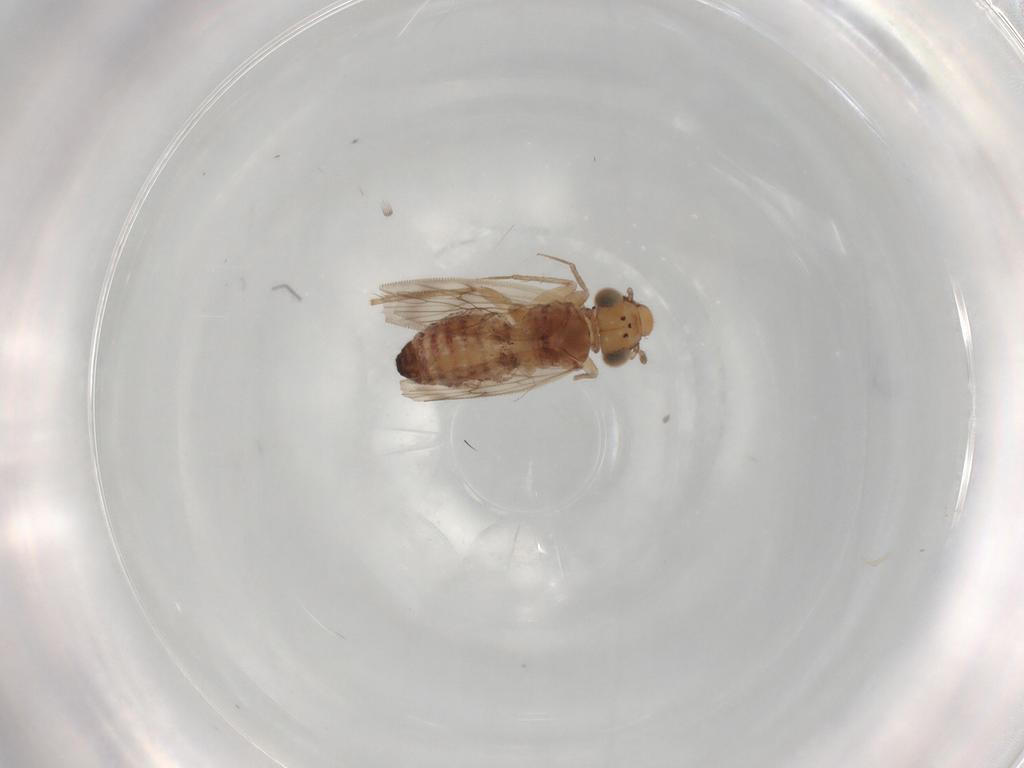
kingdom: Animalia
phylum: Arthropoda
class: Insecta
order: Psocodea
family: Lepidopsocidae
